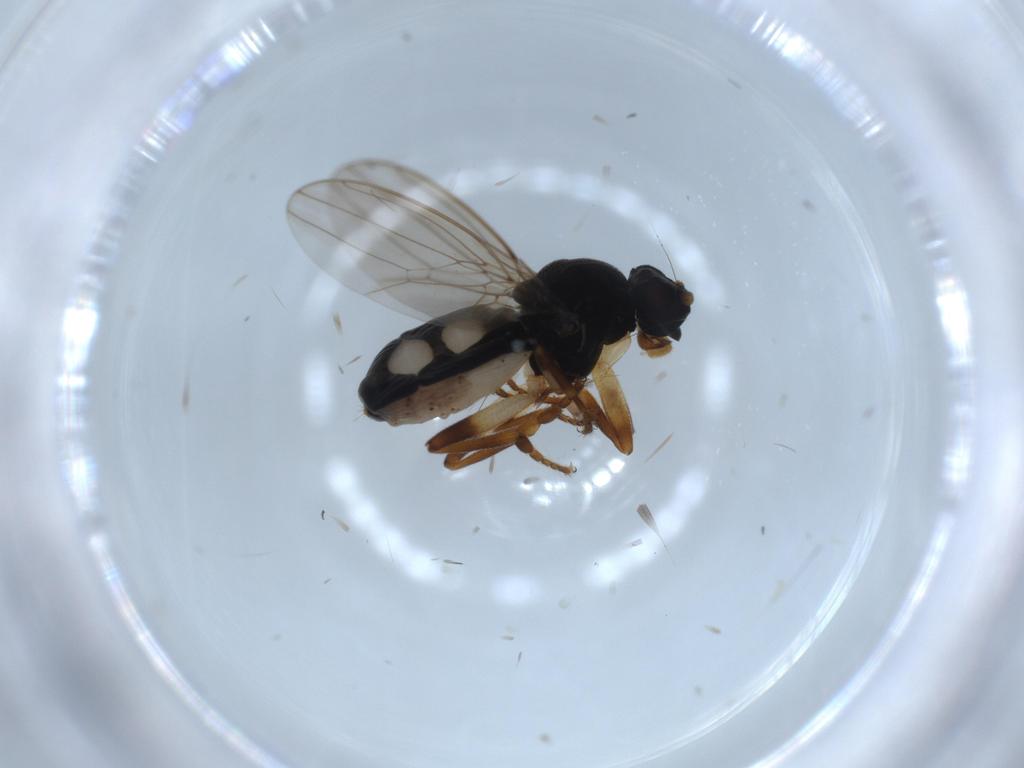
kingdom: Animalia
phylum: Arthropoda
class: Insecta
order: Diptera
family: Sphaeroceridae
